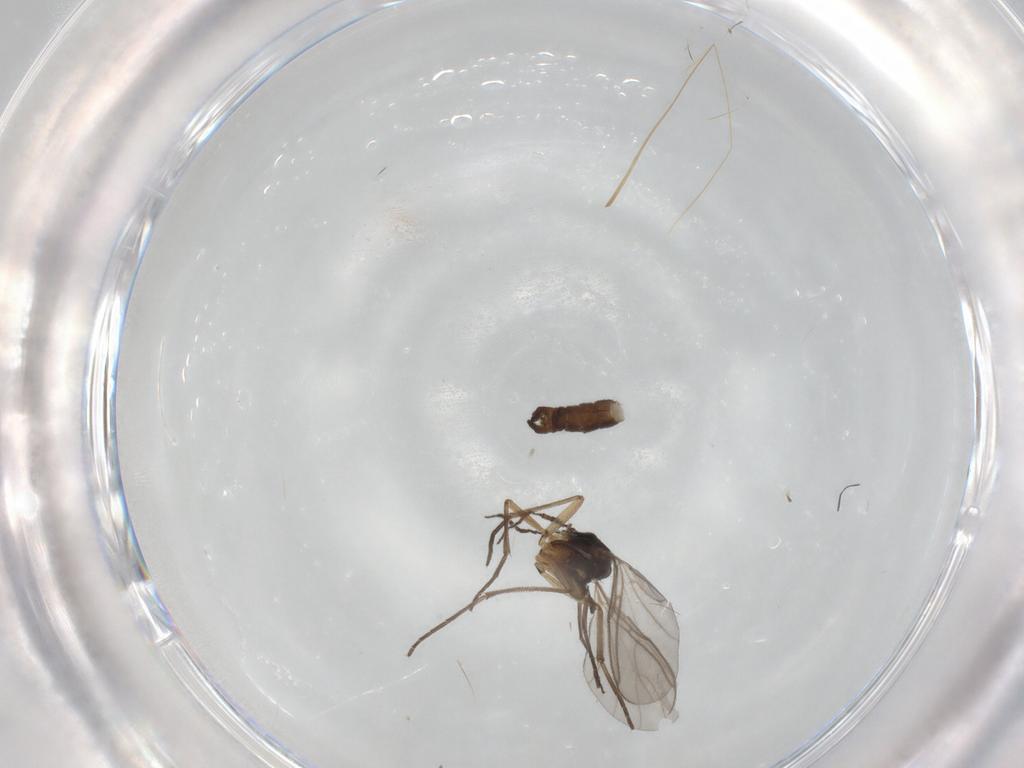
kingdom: Animalia
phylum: Arthropoda
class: Insecta
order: Diptera
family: Sciaridae
